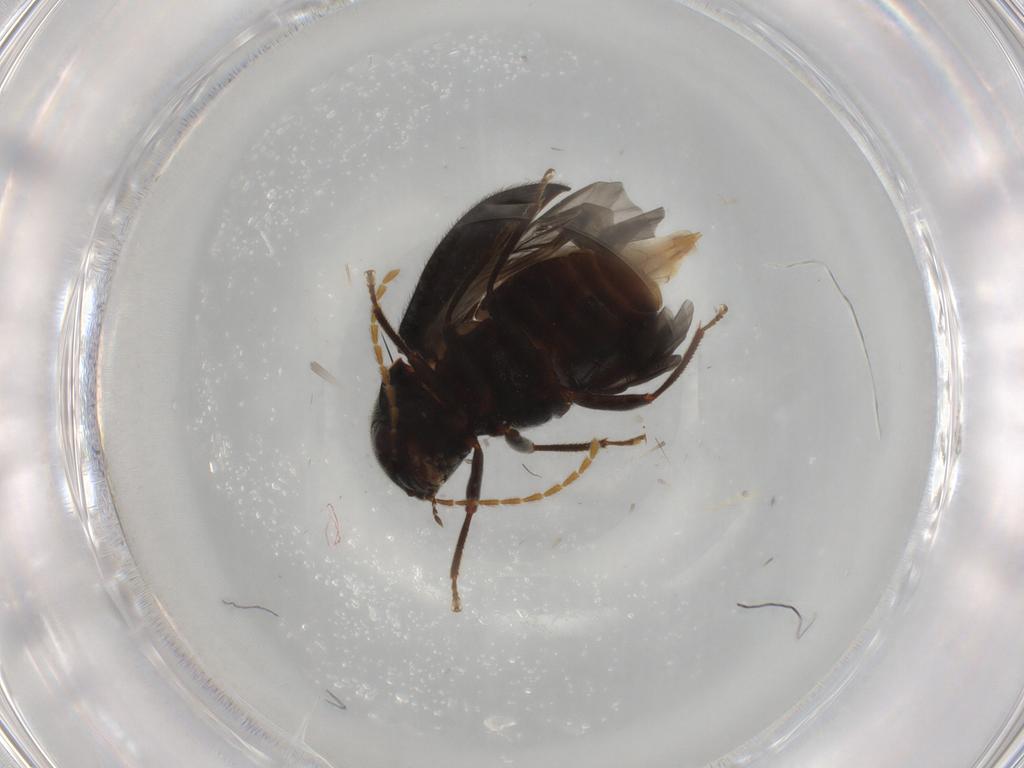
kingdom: Animalia
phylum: Arthropoda
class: Insecta
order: Coleoptera
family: Ptilodactylidae
